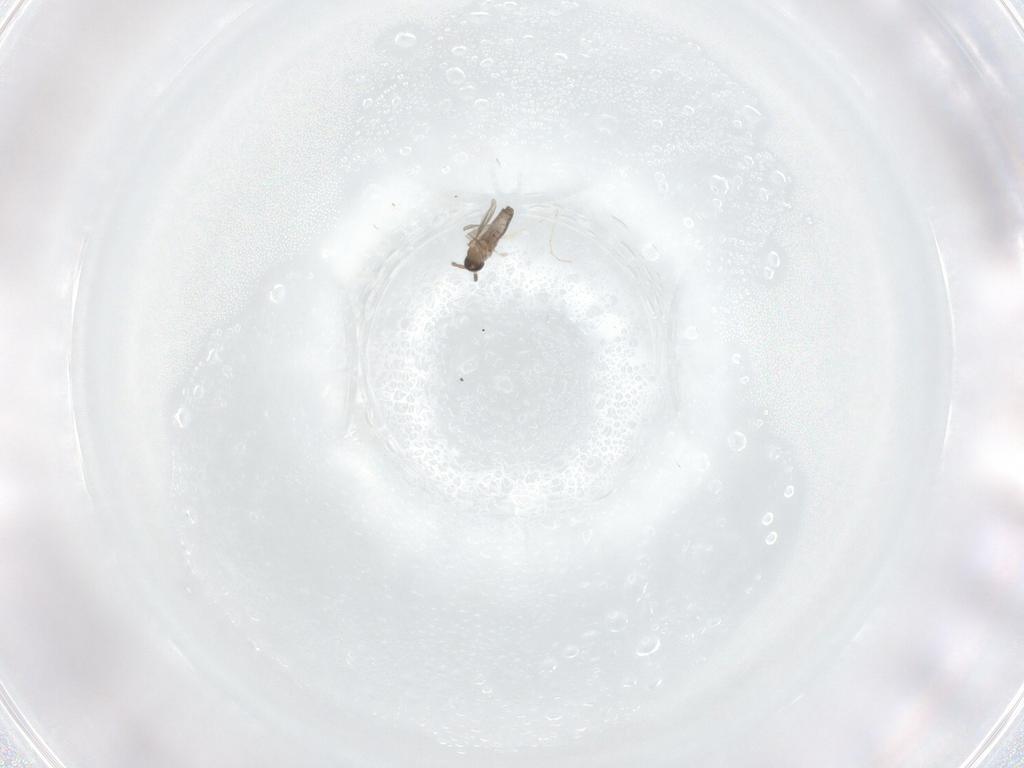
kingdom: Animalia
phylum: Arthropoda
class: Insecta
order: Diptera
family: Cecidomyiidae
